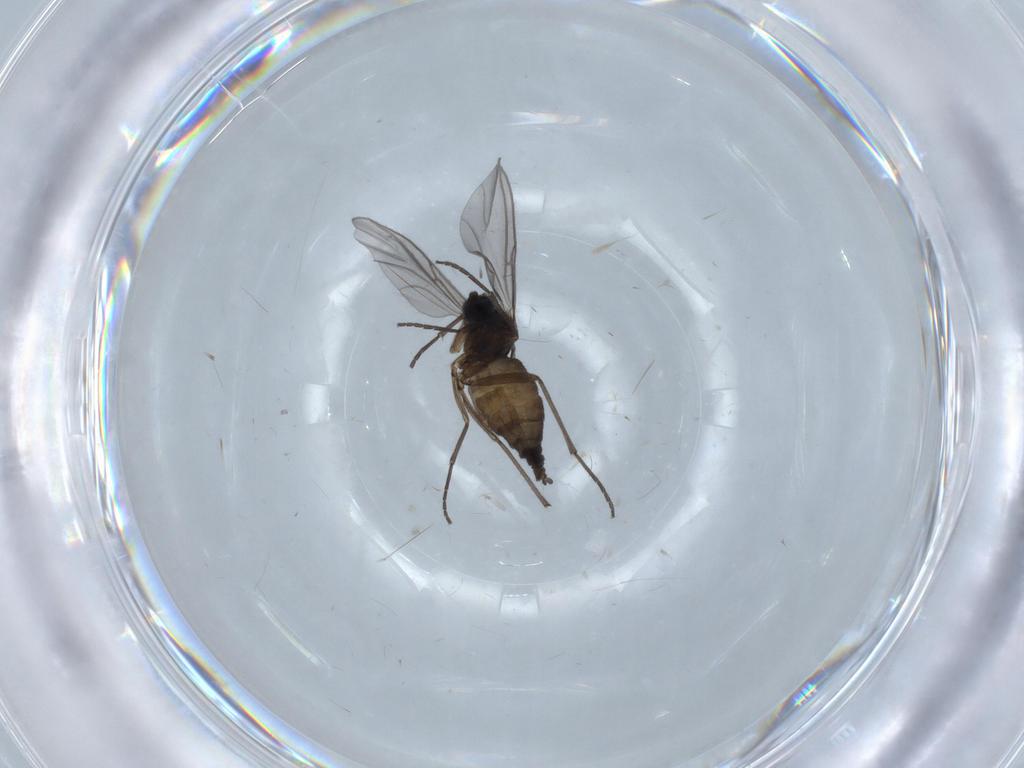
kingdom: Animalia
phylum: Arthropoda
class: Insecta
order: Diptera
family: Sciaridae
